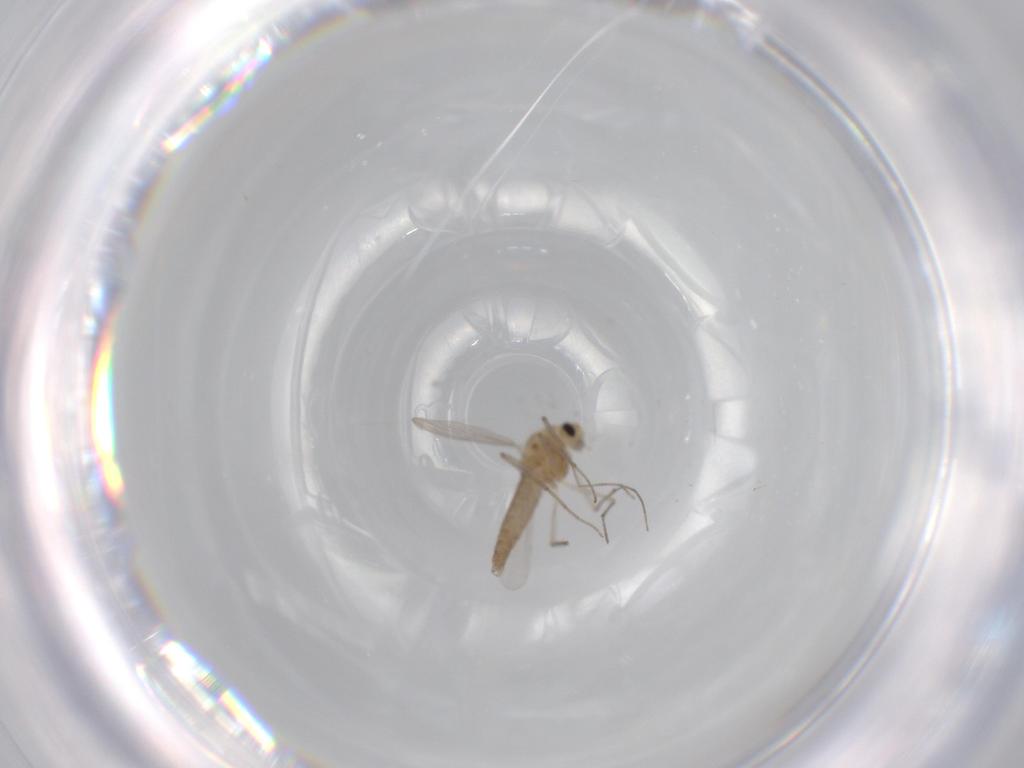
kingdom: Animalia
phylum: Arthropoda
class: Insecta
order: Diptera
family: Chironomidae
